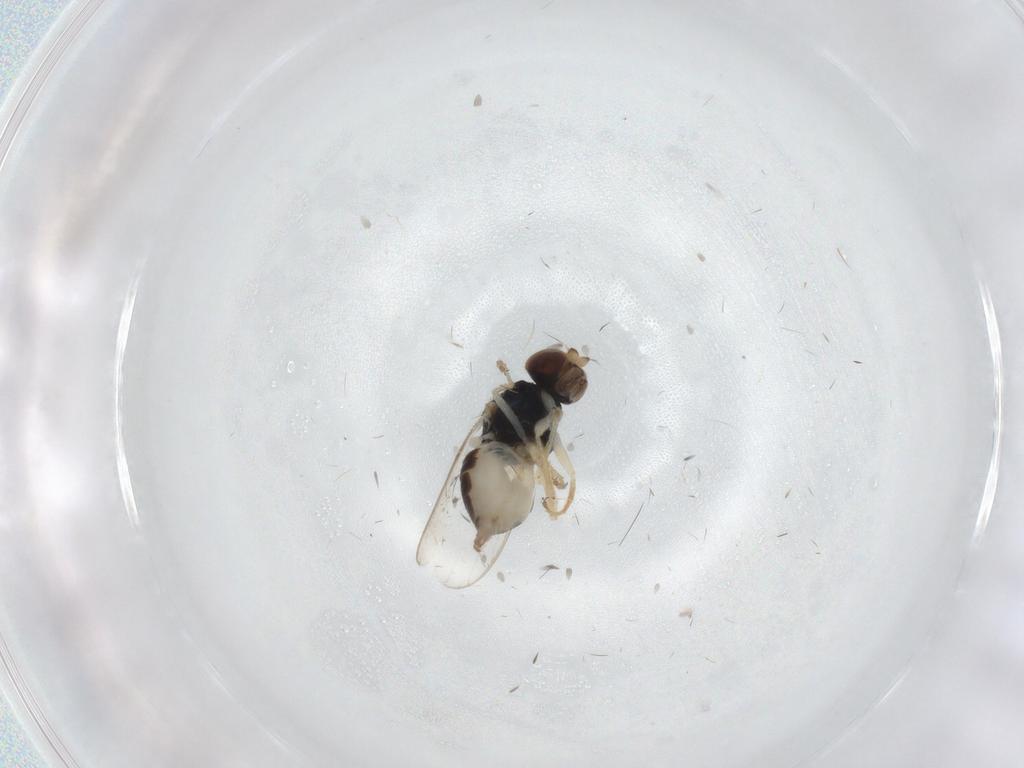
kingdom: Animalia
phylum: Arthropoda
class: Insecta
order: Diptera
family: Chloropidae
